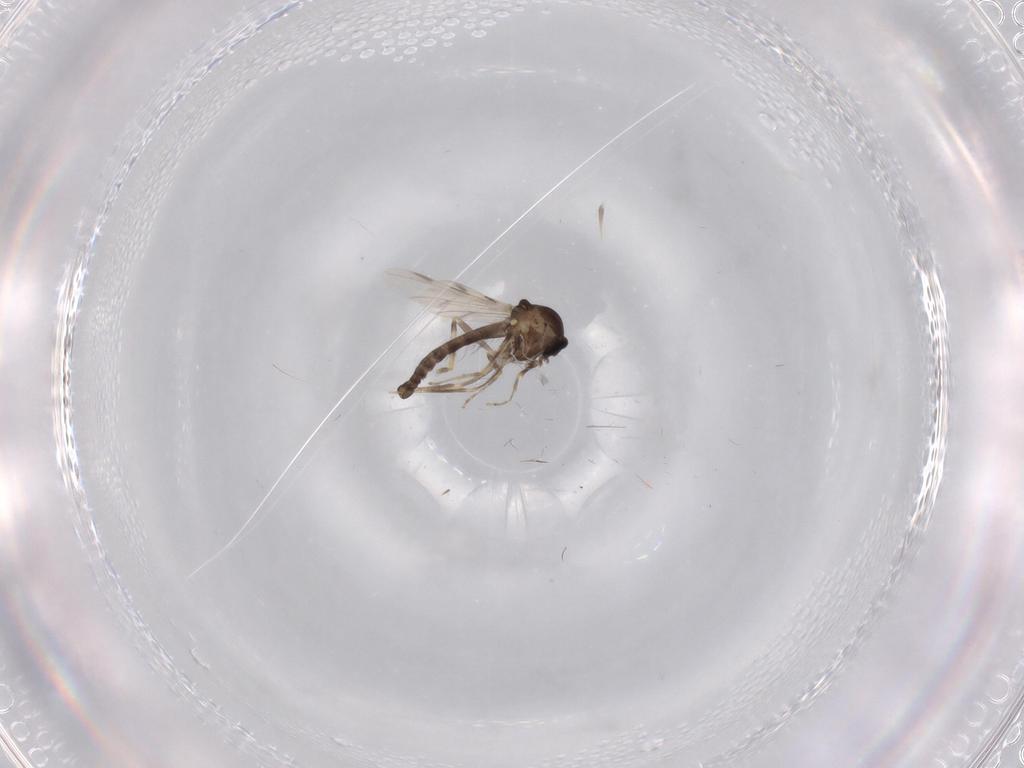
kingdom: Animalia
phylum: Arthropoda
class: Insecta
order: Diptera
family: Ceratopogonidae
